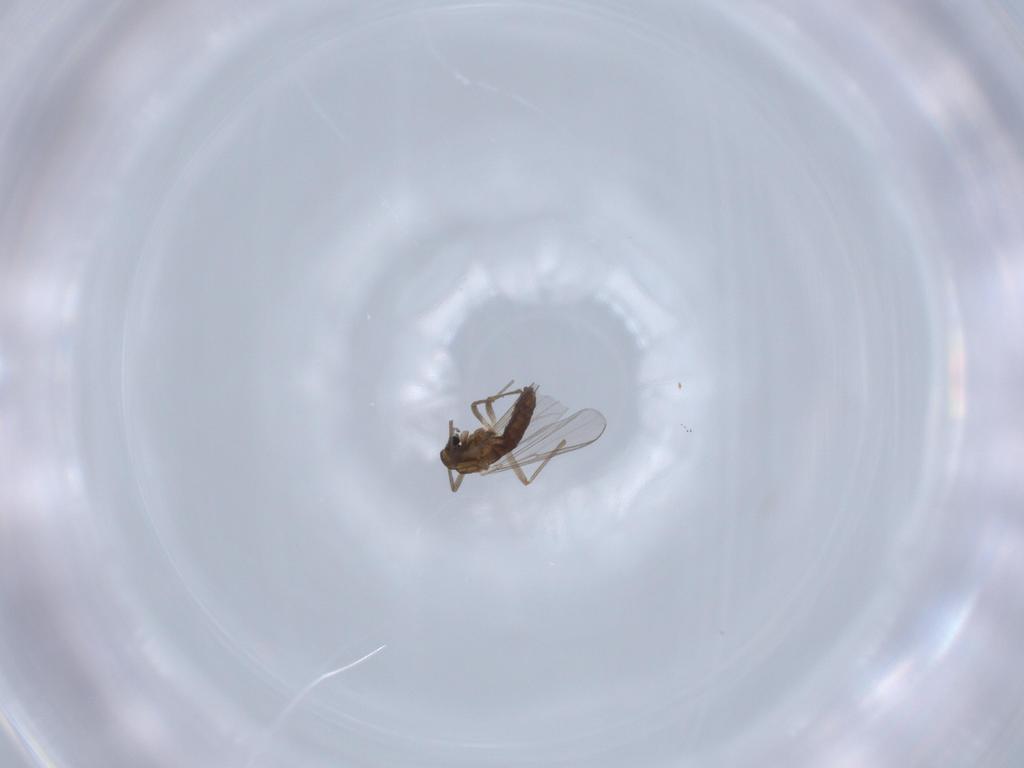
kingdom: Animalia
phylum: Arthropoda
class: Insecta
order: Diptera
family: Chironomidae
